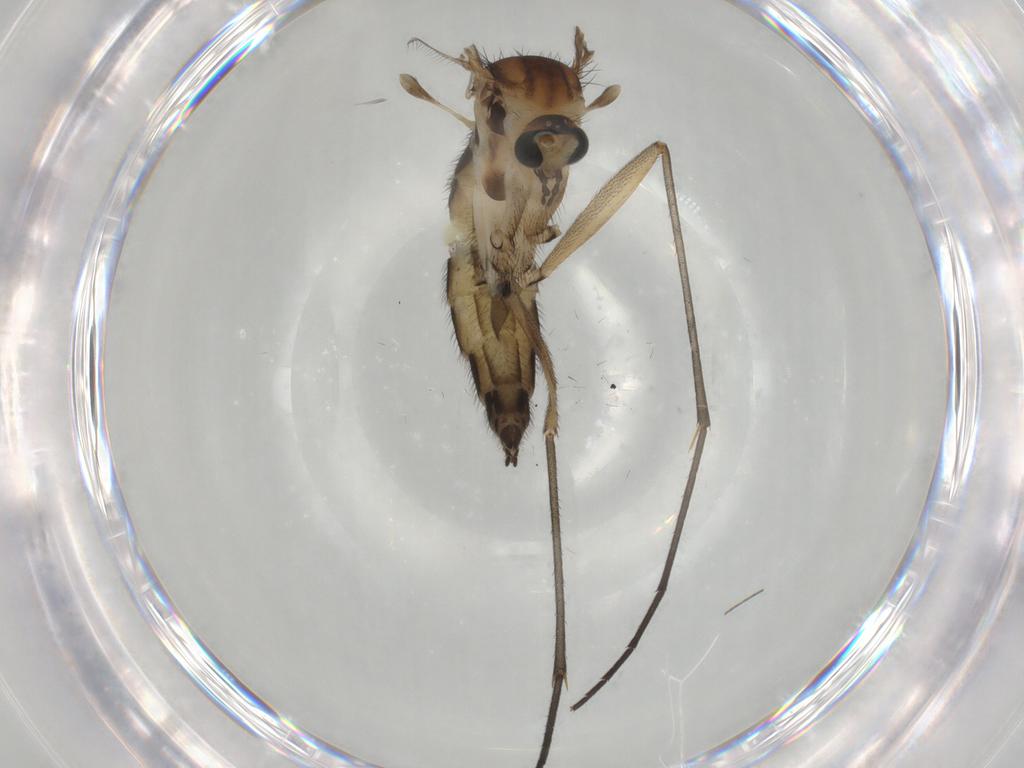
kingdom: Animalia
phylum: Arthropoda
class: Insecta
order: Diptera
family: Sciaridae
